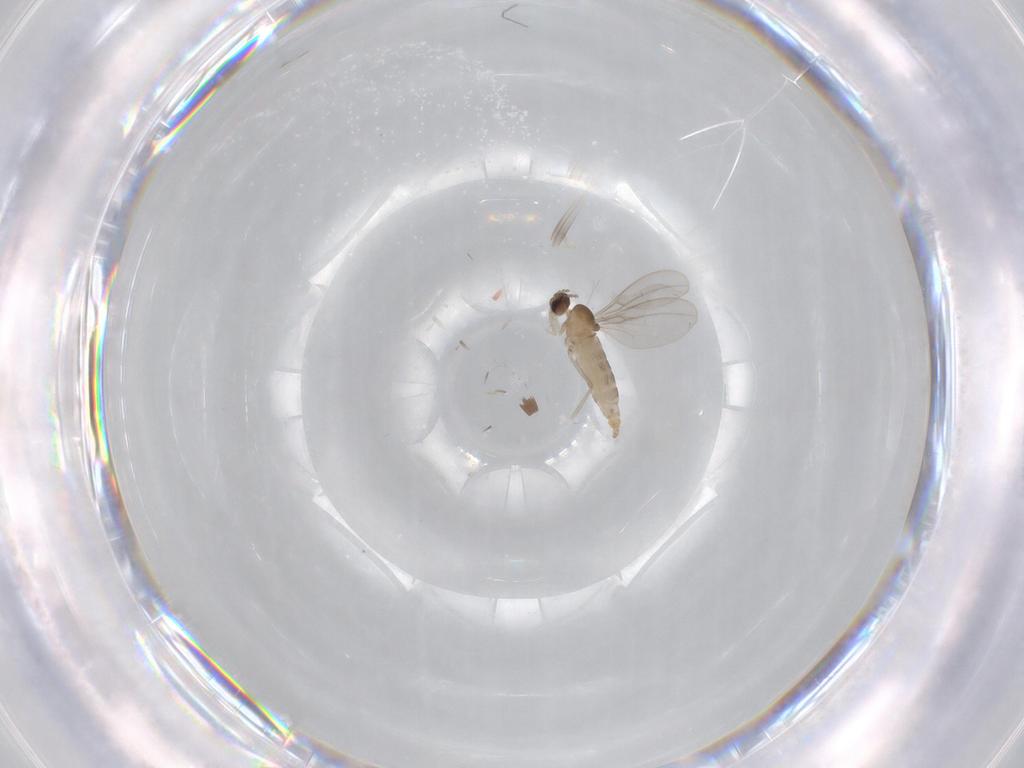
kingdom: Animalia
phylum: Arthropoda
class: Insecta
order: Diptera
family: Cecidomyiidae
